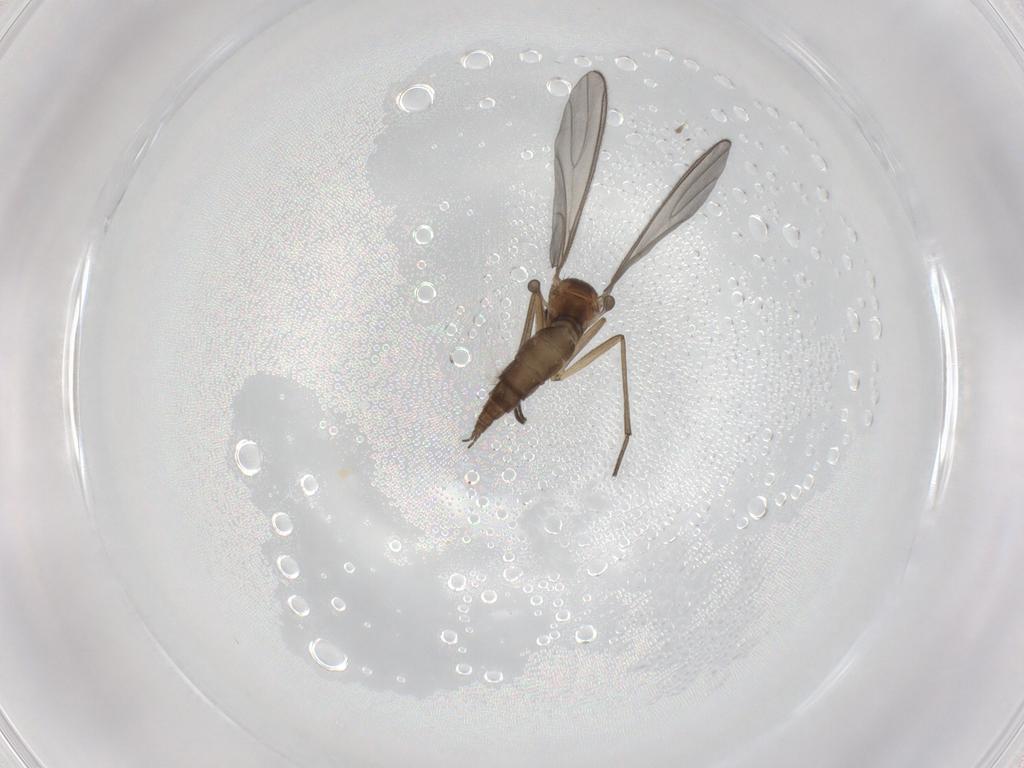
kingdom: Animalia
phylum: Arthropoda
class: Insecta
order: Diptera
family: Sciaridae
